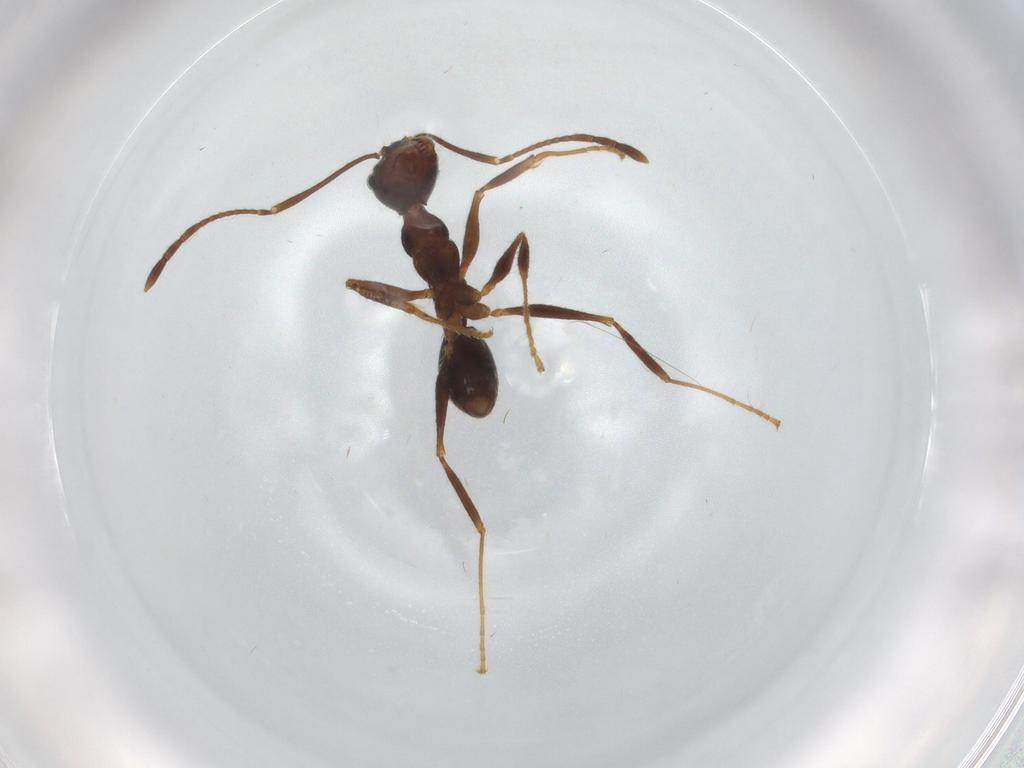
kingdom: Animalia
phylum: Arthropoda
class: Insecta
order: Hymenoptera
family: Formicidae
